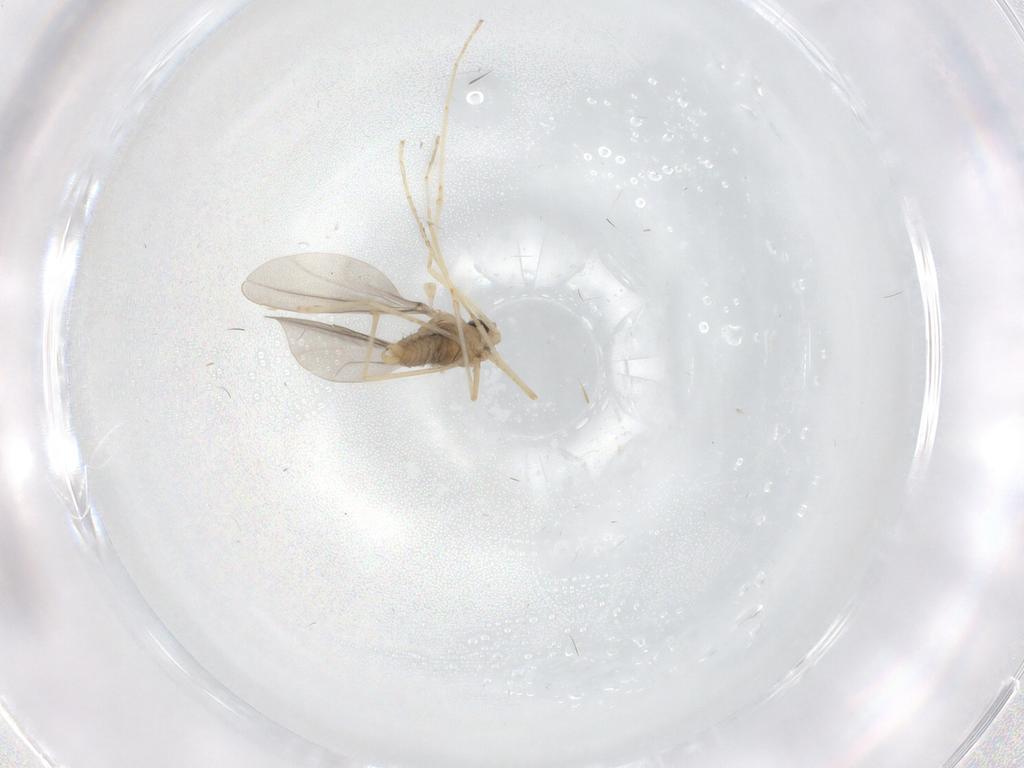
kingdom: Animalia
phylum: Arthropoda
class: Insecta
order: Diptera
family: Cecidomyiidae
